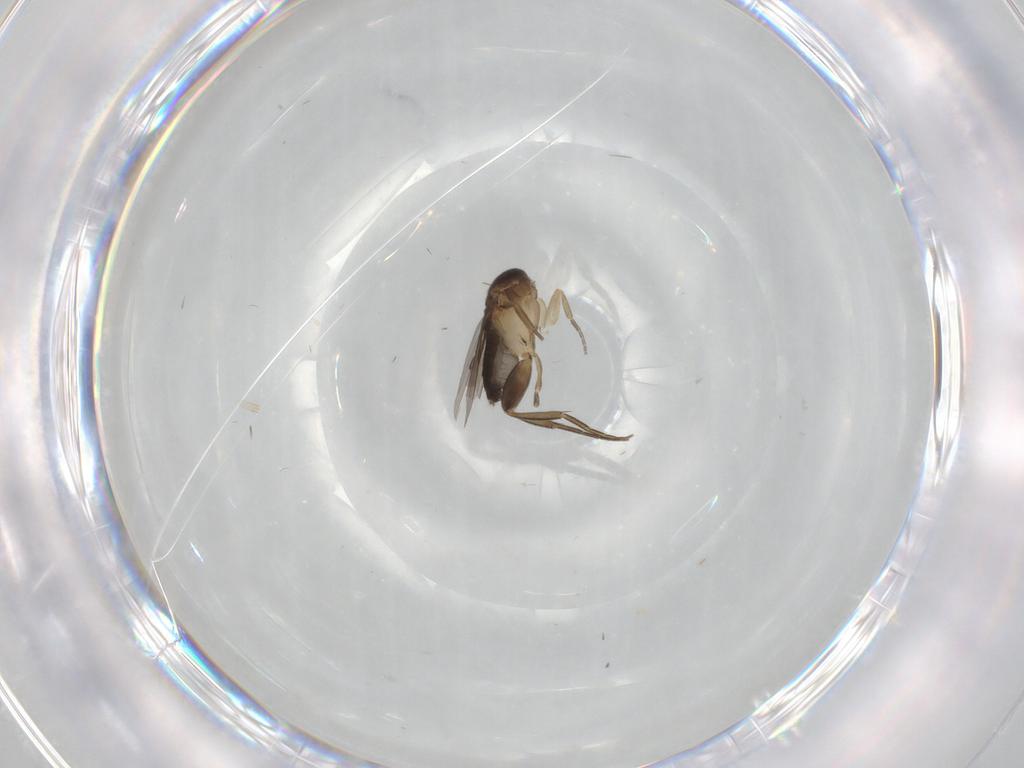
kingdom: Animalia
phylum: Arthropoda
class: Insecta
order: Diptera
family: Phoridae
